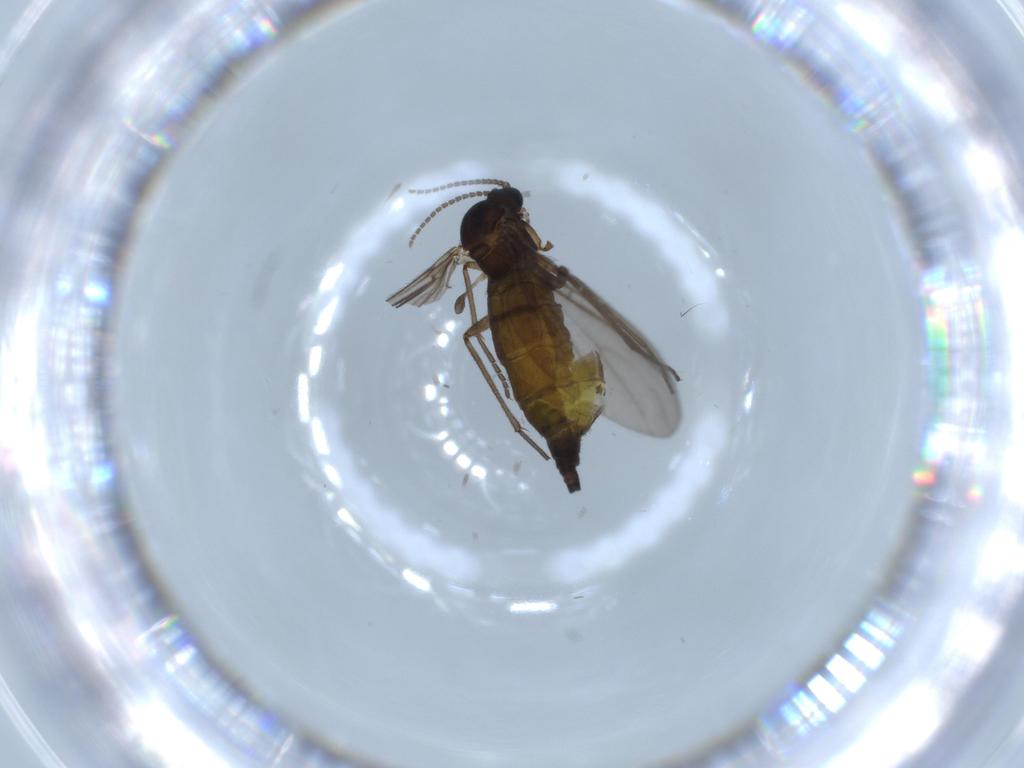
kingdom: Animalia
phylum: Arthropoda
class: Insecta
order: Diptera
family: Sciaridae
